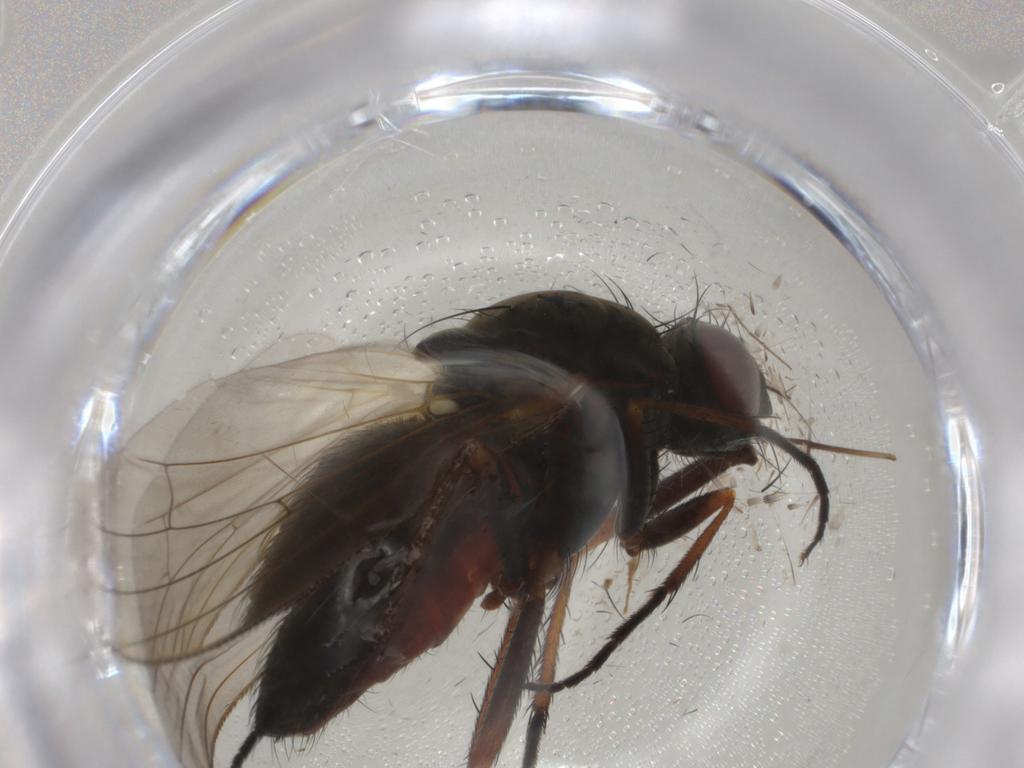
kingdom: Animalia
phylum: Arthropoda
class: Insecta
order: Diptera
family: Anthomyiidae
